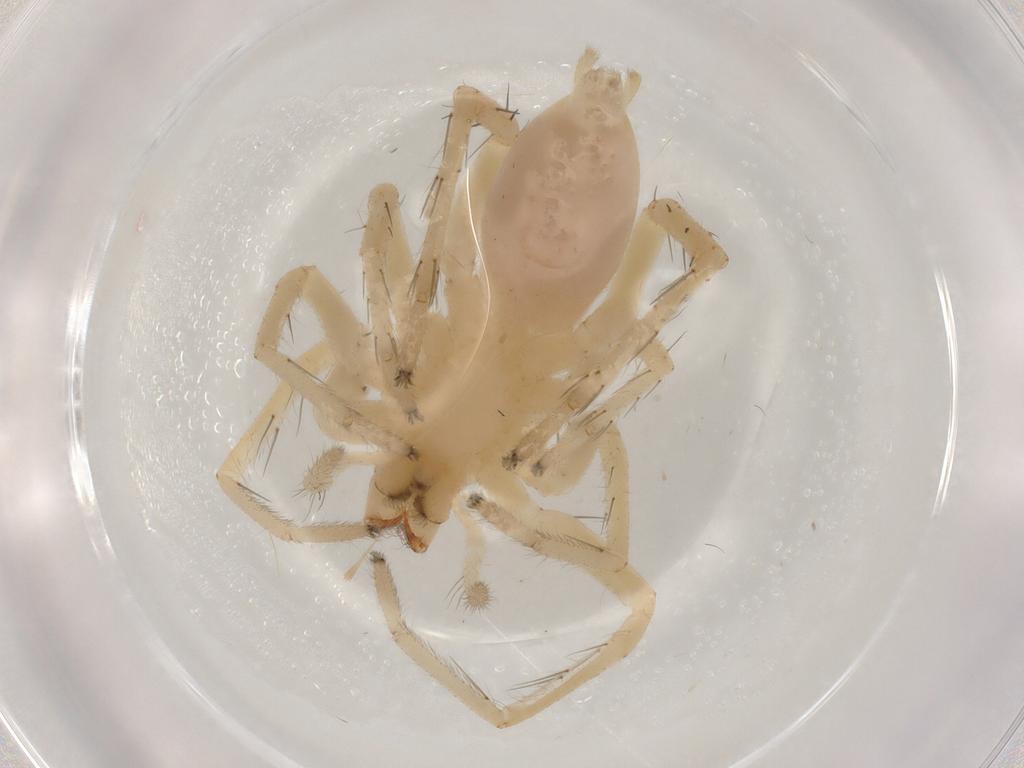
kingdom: Animalia
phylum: Arthropoda
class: Arachnida
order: Araneae
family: Anyphaenidae
